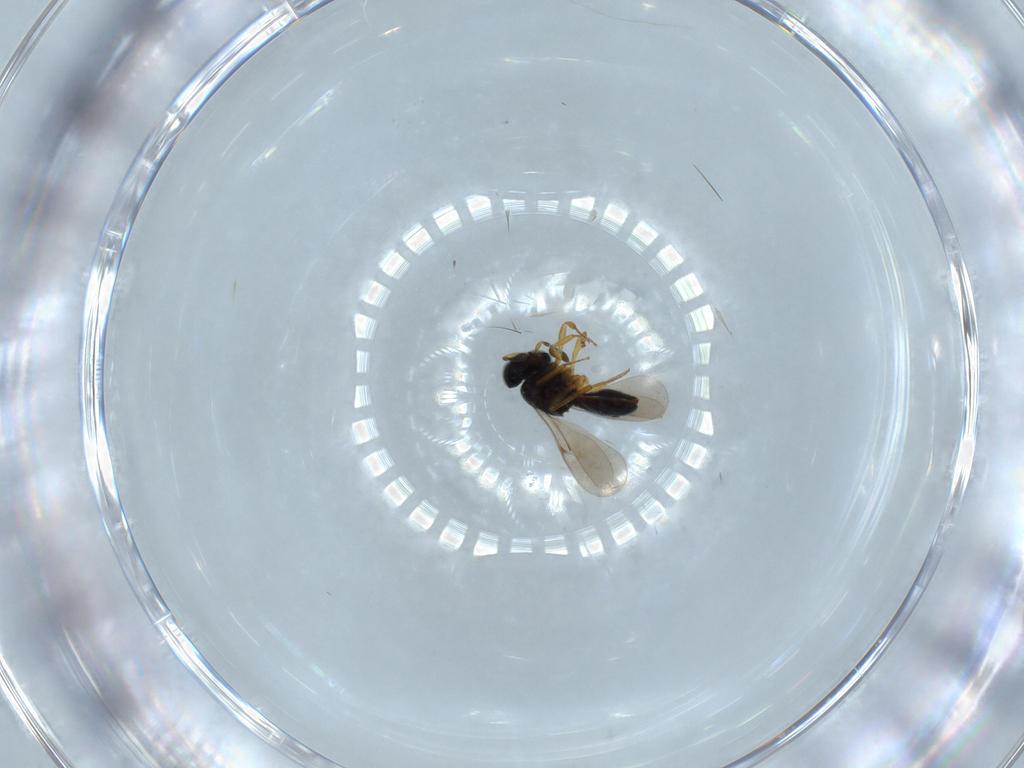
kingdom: Animalia
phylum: Arthropoda
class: Insecta
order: Hymenoptera
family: Scelionidae
